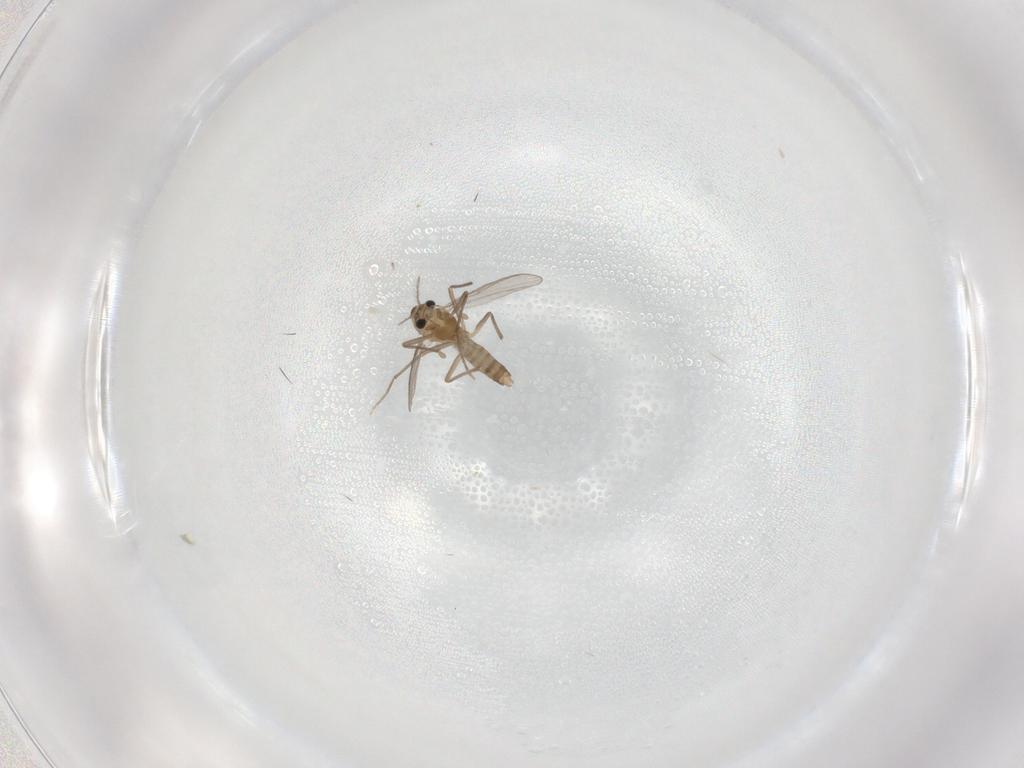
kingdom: Animalia
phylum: Arthropoda
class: Insecta
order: Diptera
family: Chironomidae
